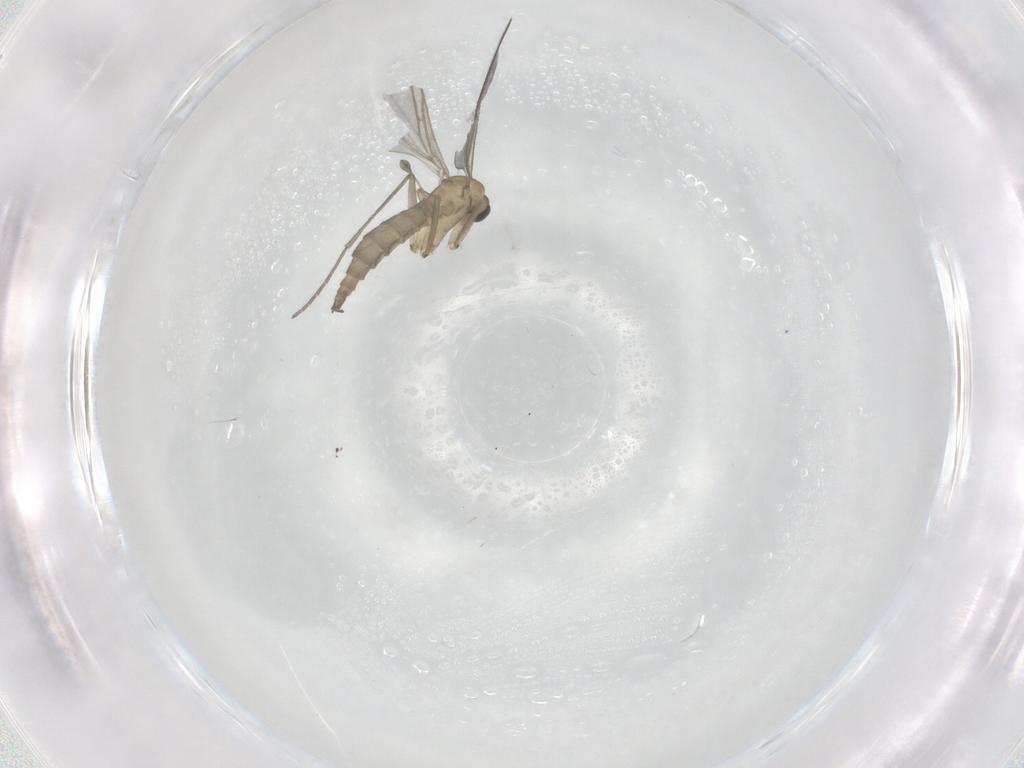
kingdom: Animalia
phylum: Arthropoda
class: Insecta
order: Diptera
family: Sciaridae
